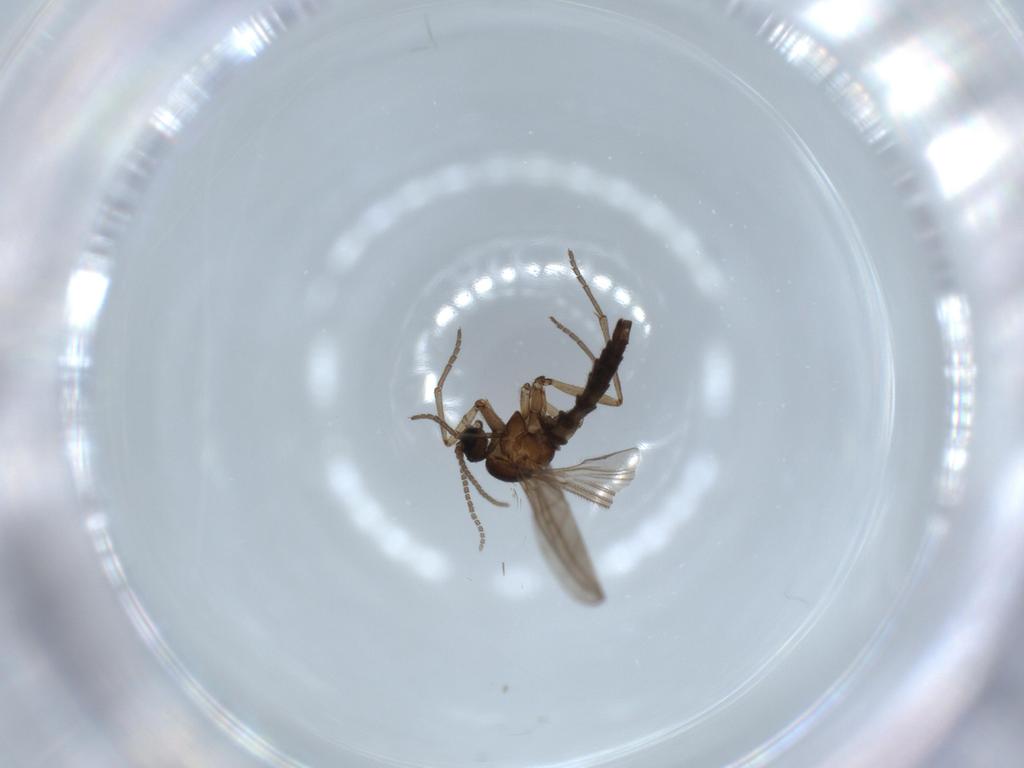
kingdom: Animalia
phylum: Arthropoda
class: Insecta
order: Diptera
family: Sciaridae
